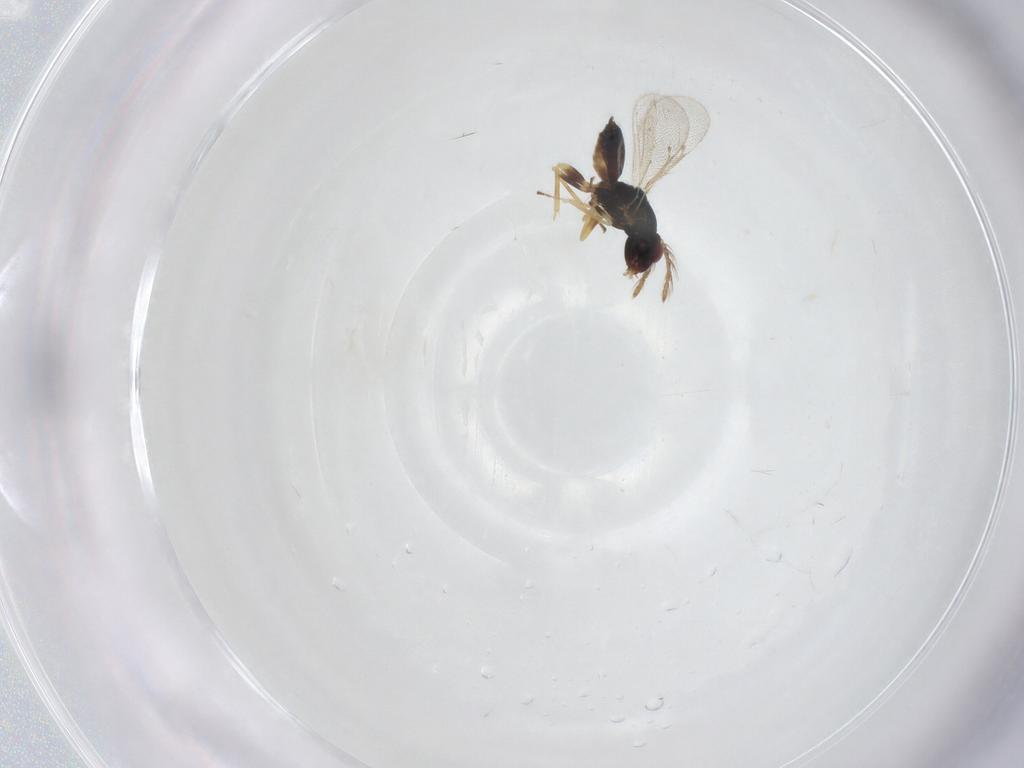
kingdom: Animalia
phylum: Arthropoda
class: Insecta
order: Hymenoptera
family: Eulophidae
